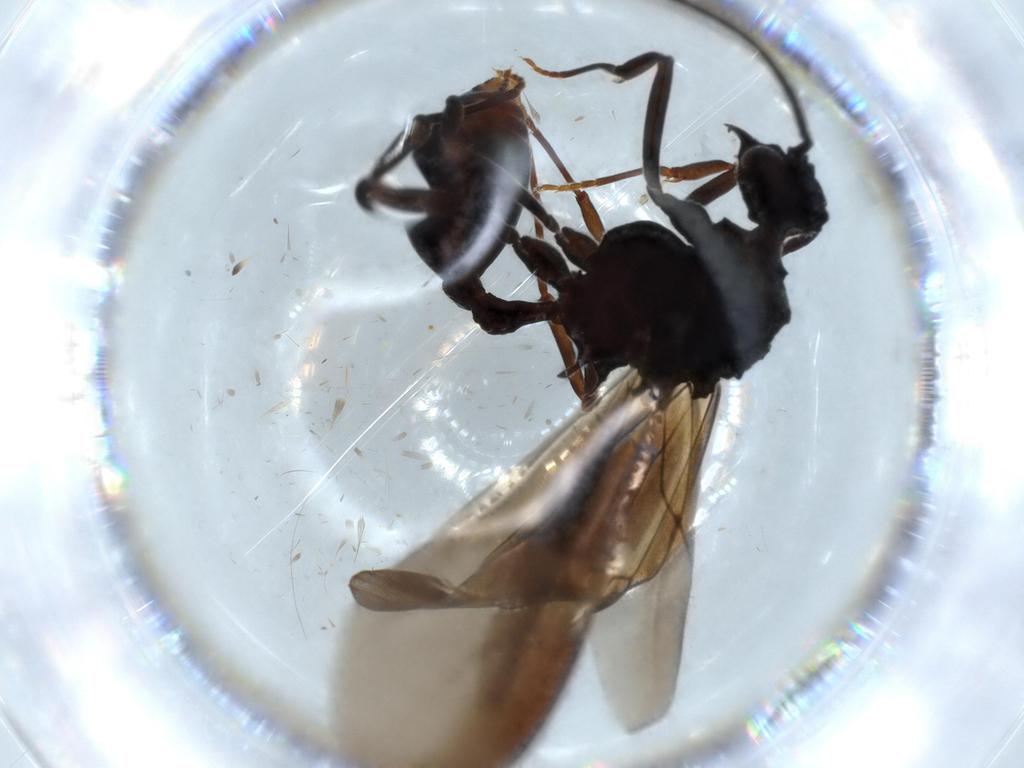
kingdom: Animalia
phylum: Arthropoda
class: Insecta
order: Hymenoptera
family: Formicidae
